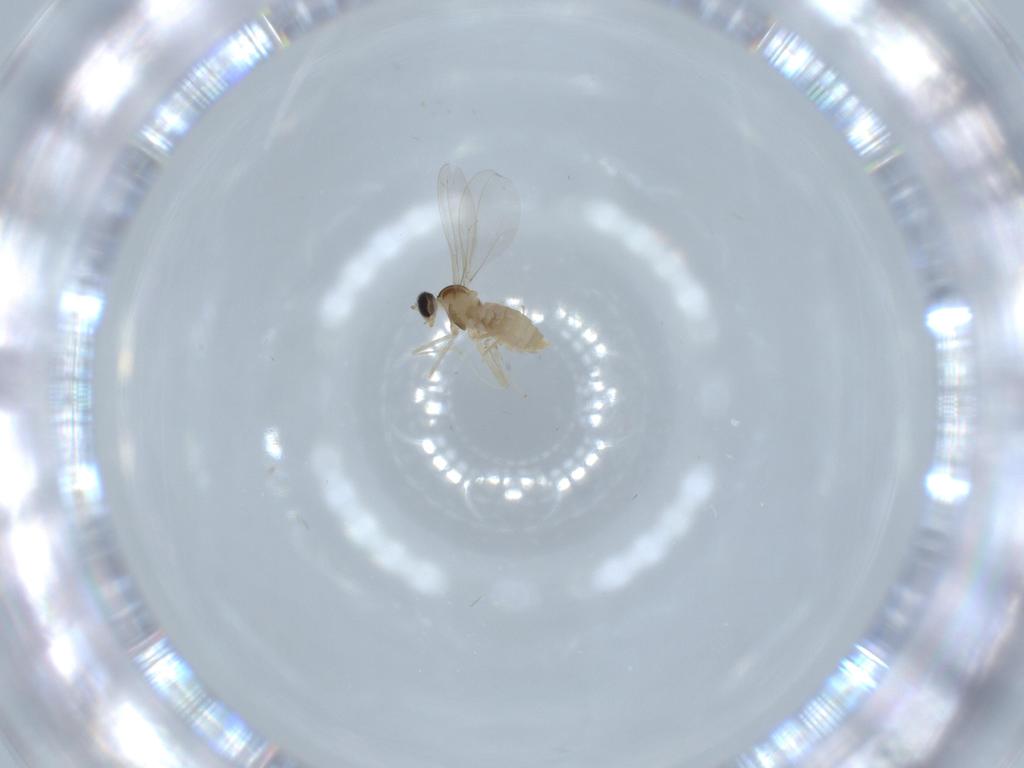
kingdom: Animalia
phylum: Arthropoda
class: Insecta
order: Diptera
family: Cecidomyiidae
